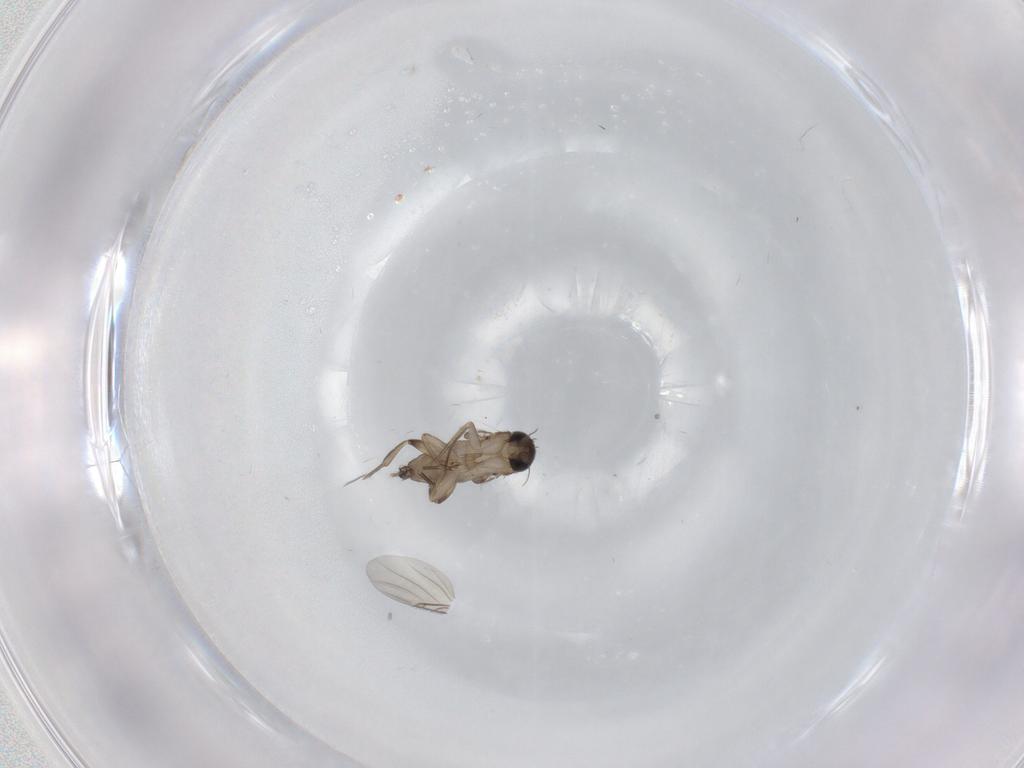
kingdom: Animalia
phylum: Arthropoda
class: Insecta
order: Diptera
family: Phoridae
